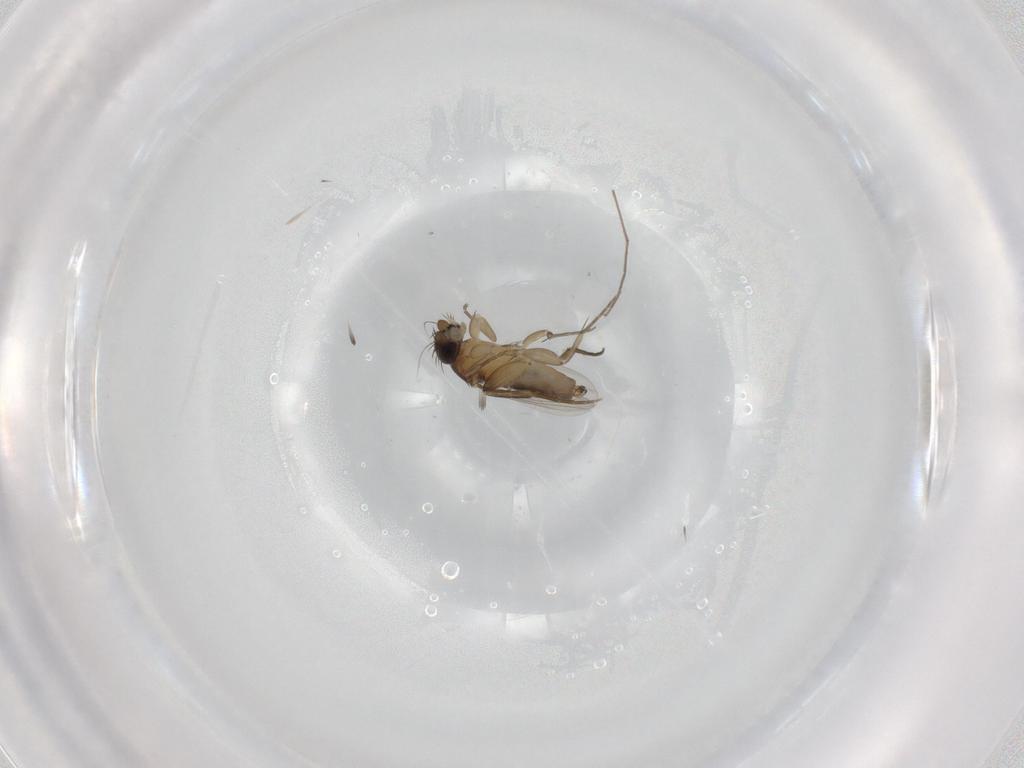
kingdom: Animalia
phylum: Arthropoda
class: Insecta
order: Diptera
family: Phoridae
